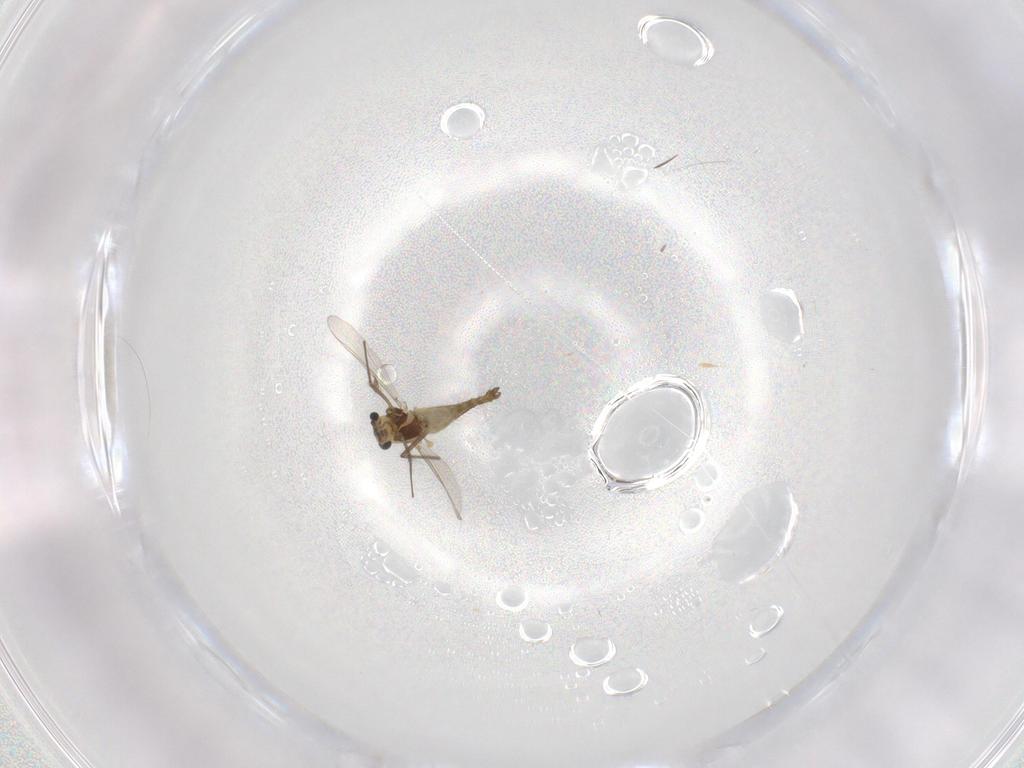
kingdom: Animalia
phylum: Arthropoda
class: Insecta
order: Diptera
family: Chironomidae
